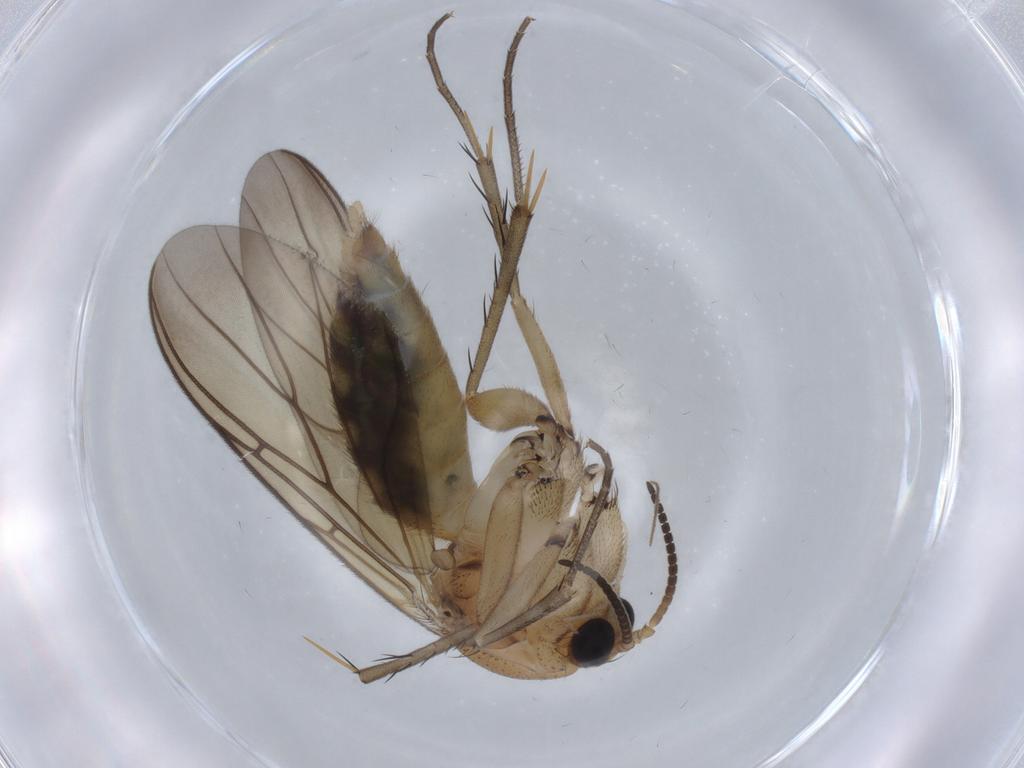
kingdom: Animalia
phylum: Arthropoda
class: Insecta
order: Diptera
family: Mycetophilidae
